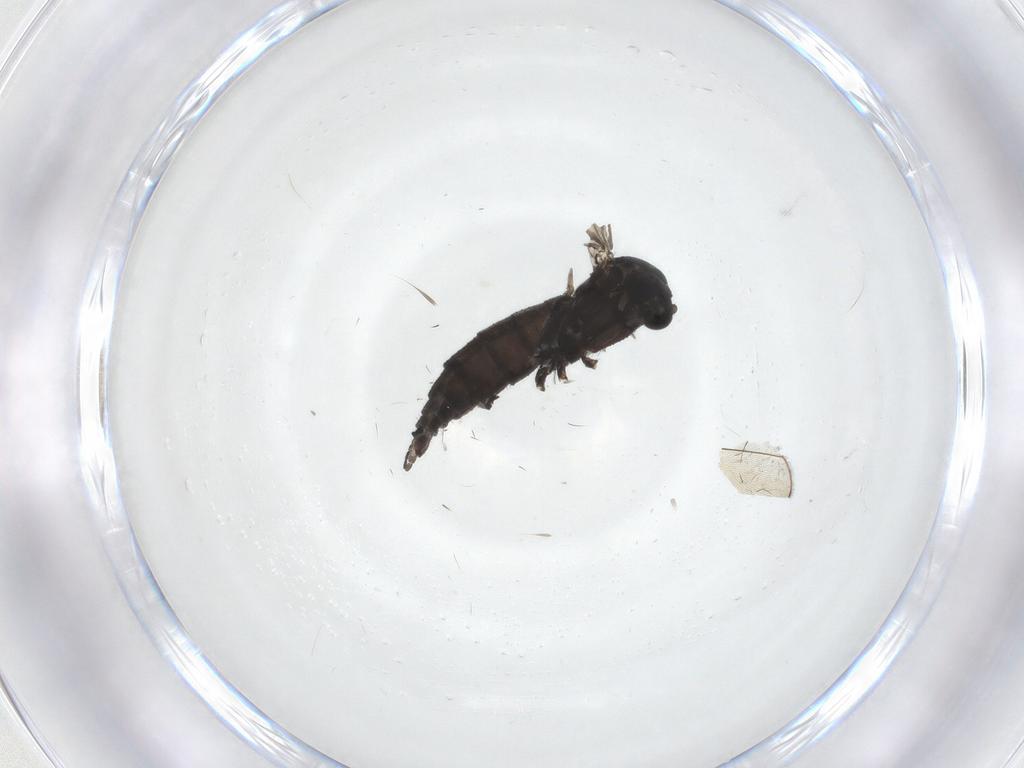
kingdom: Animalia
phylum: Arthropoda
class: Insecta
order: Diptera
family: Sciaridae
